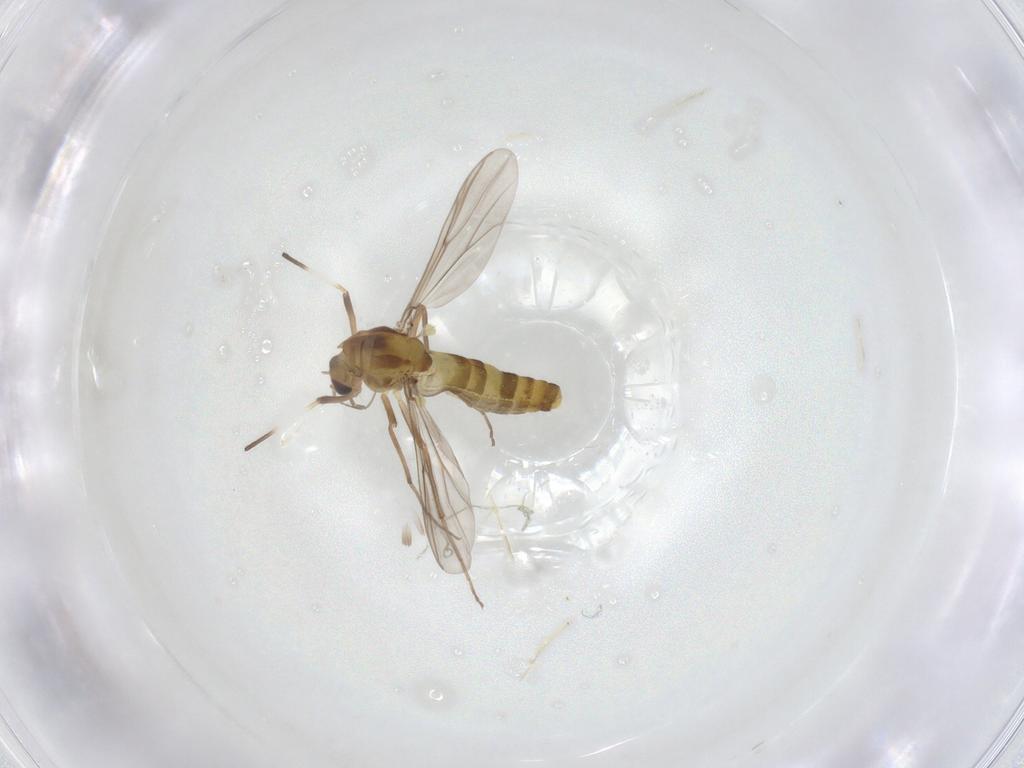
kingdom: Animalia
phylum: Arthropoda
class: Insecta
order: Diptera
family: Chironomidae
